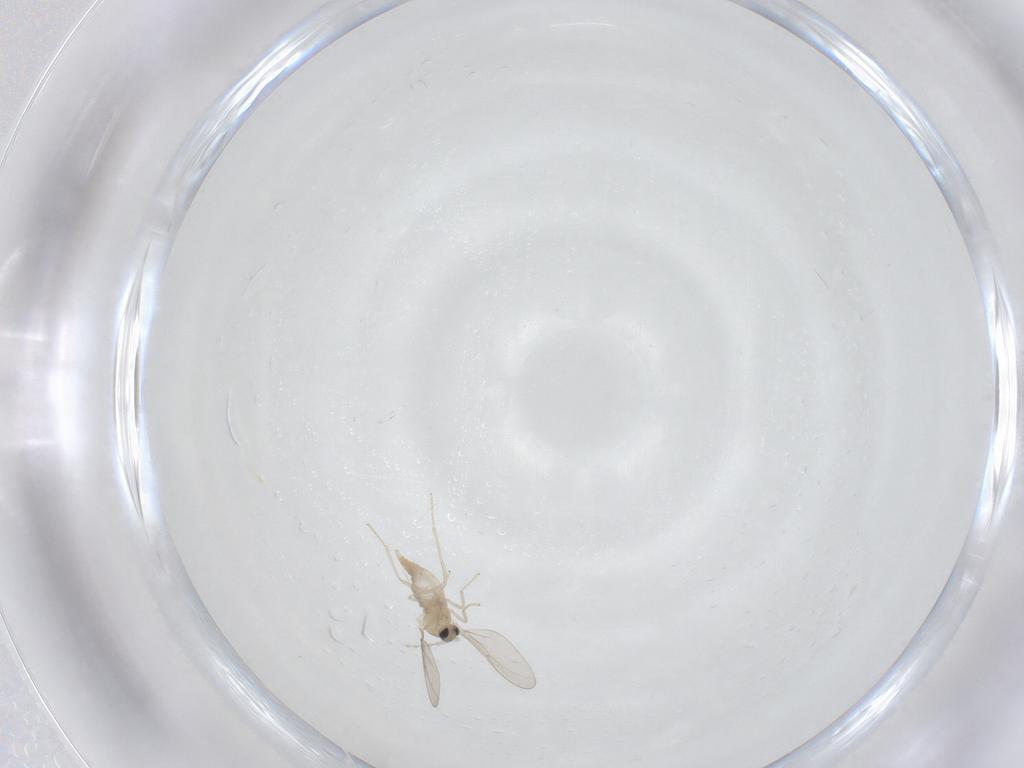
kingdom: Animalia
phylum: Arthropoda
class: Insecta
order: Diptera
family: Cecidomyiidae
